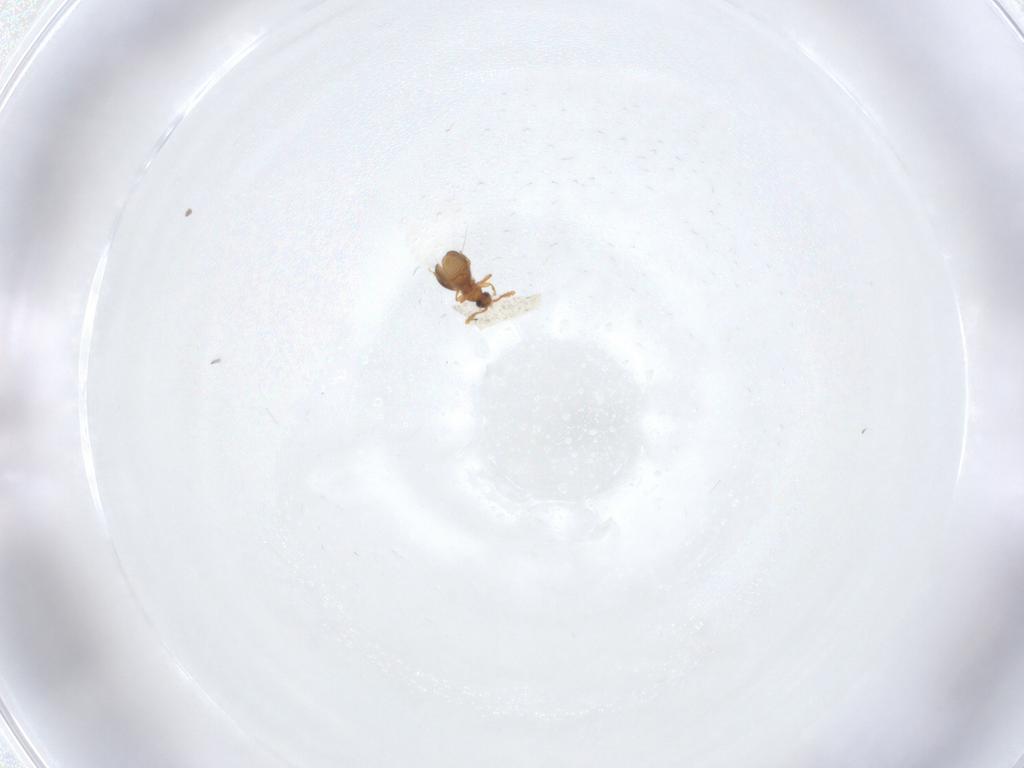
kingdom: Animalia
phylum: Arthropoda
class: Insecta
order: Coleoptera
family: Staphylinidae
